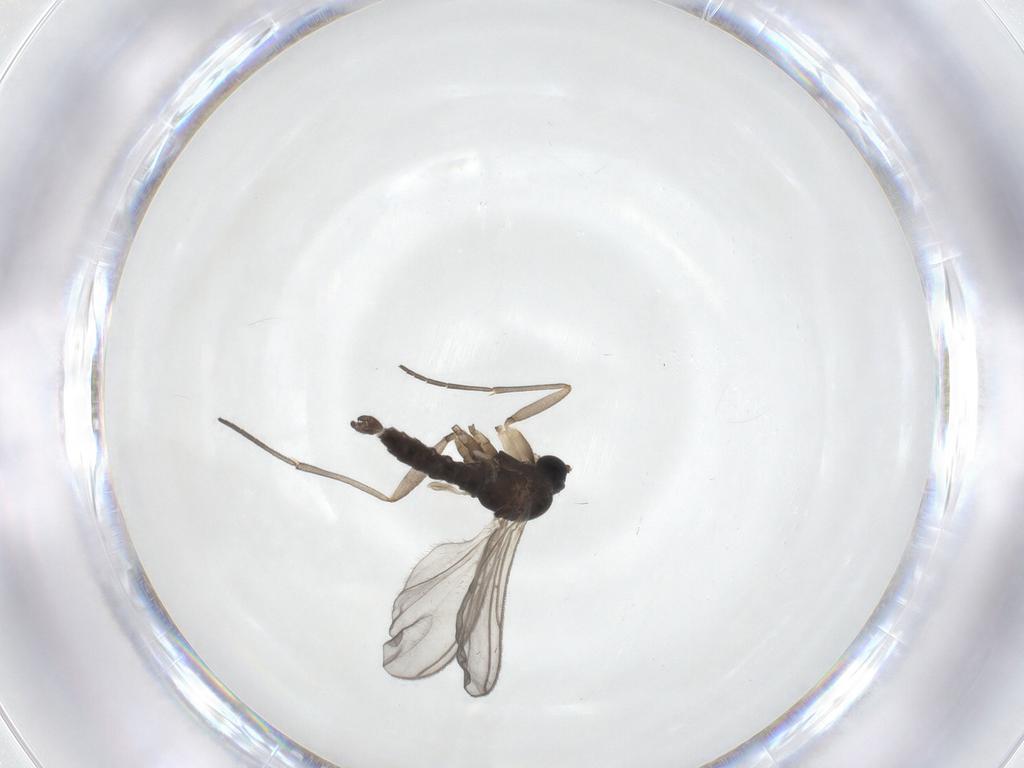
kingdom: Animalia
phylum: Arthropoda
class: Insecta
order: Diptera
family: Sciaridae
